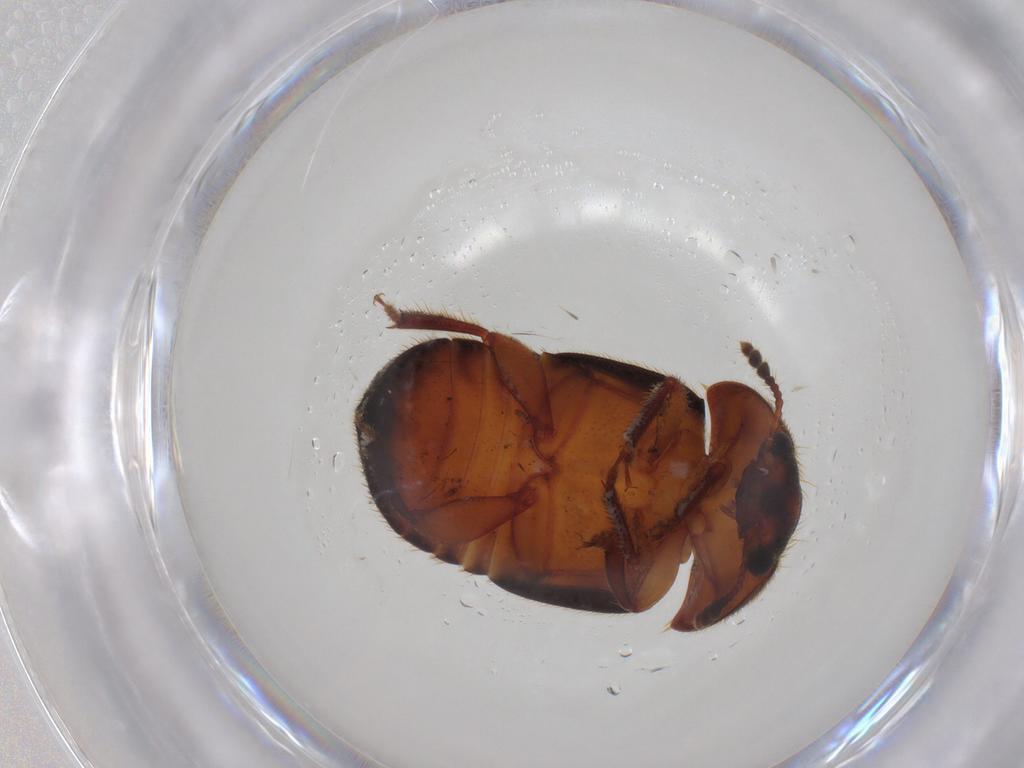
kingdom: Animalia
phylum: Arthropoda
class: Insecta
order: Coleoptera
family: Nitidulidae
